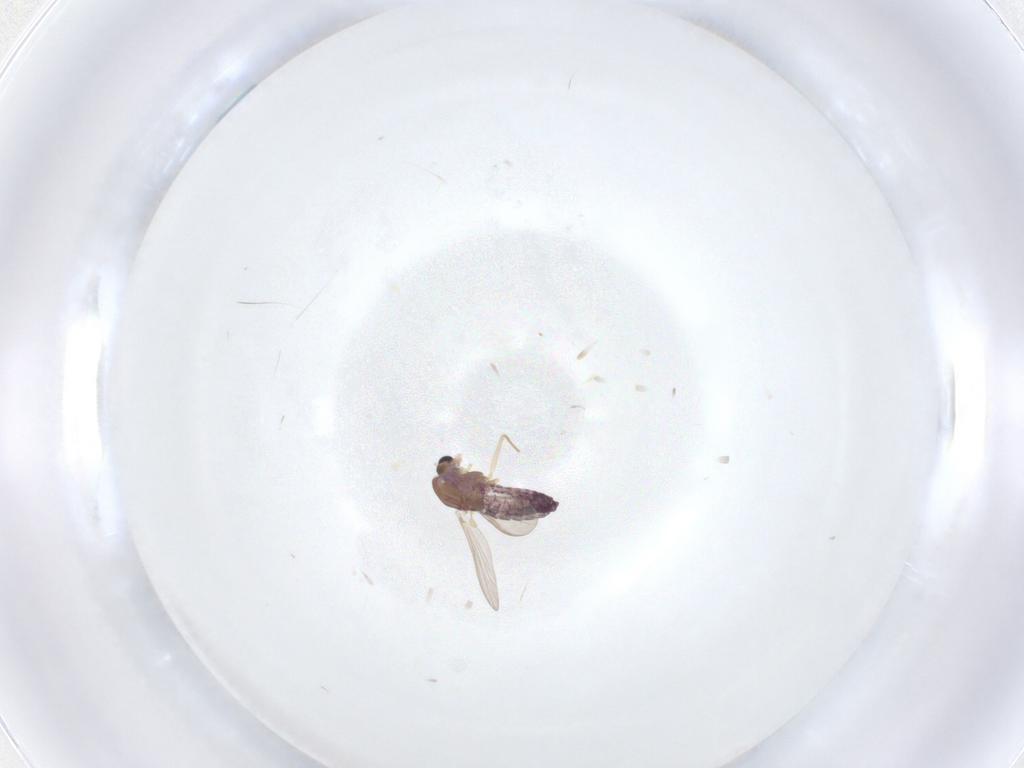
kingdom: Animalia
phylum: Arthropoda
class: Insecta
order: Diptera
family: Chironomidae
